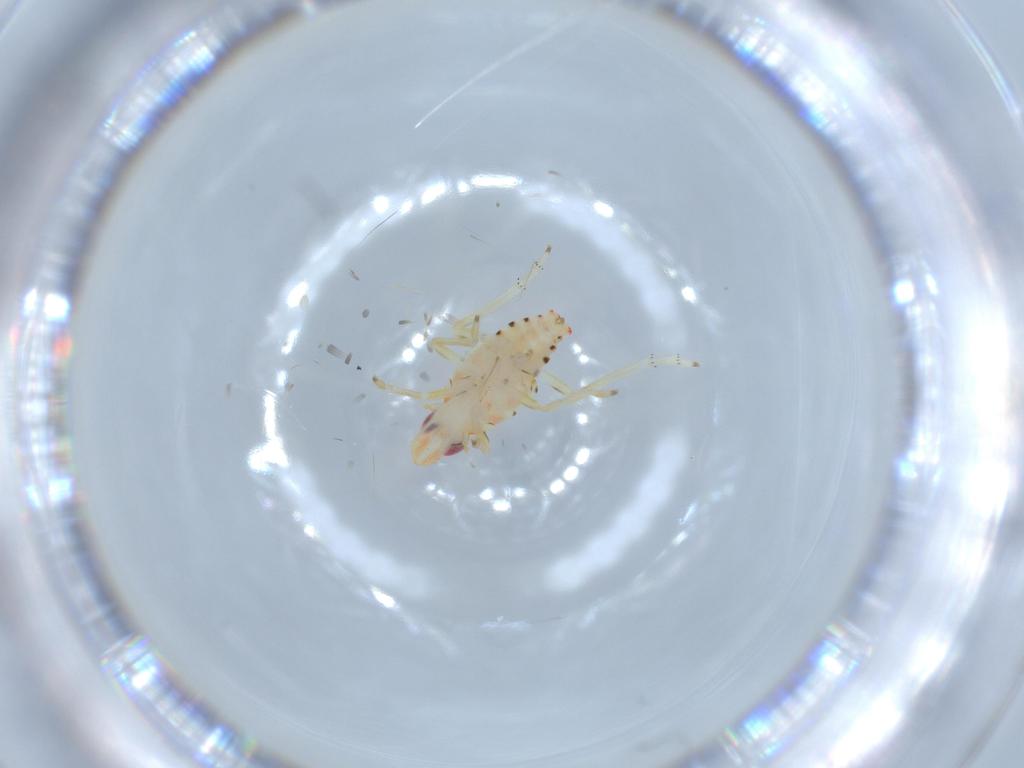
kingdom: Animalia
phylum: Arthropoda
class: Insecta
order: Hemiptera
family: Tropiduchidae
